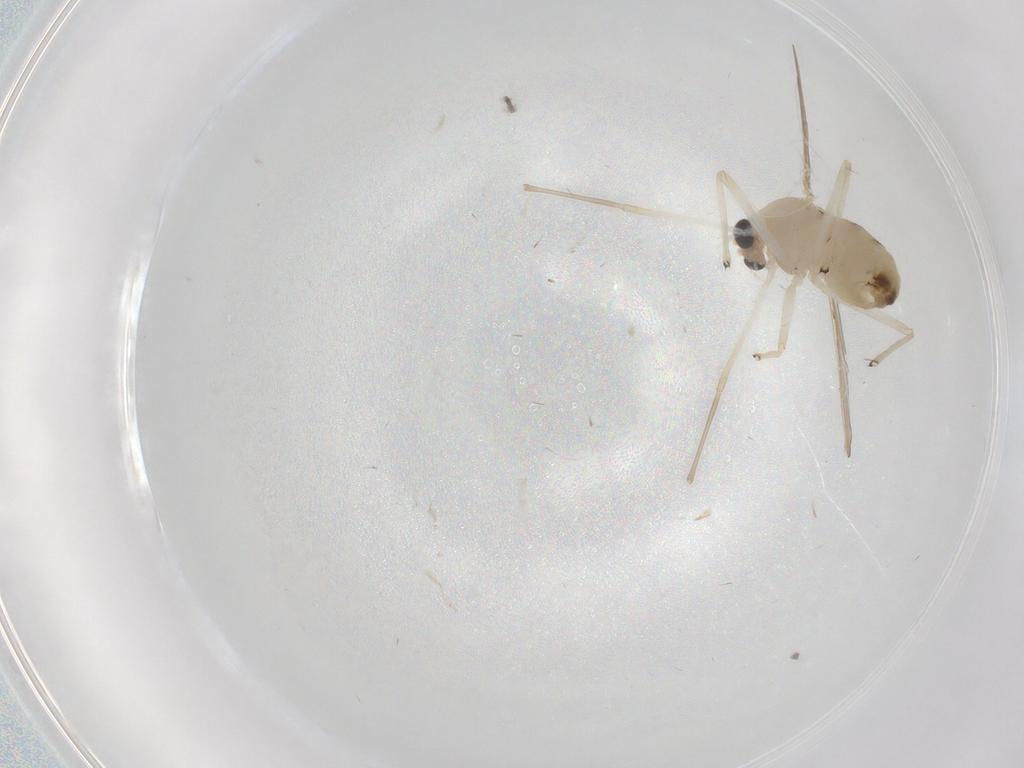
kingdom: Animalia
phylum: Arthropoda
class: Insecta
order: Diptera
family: Chironomidae
